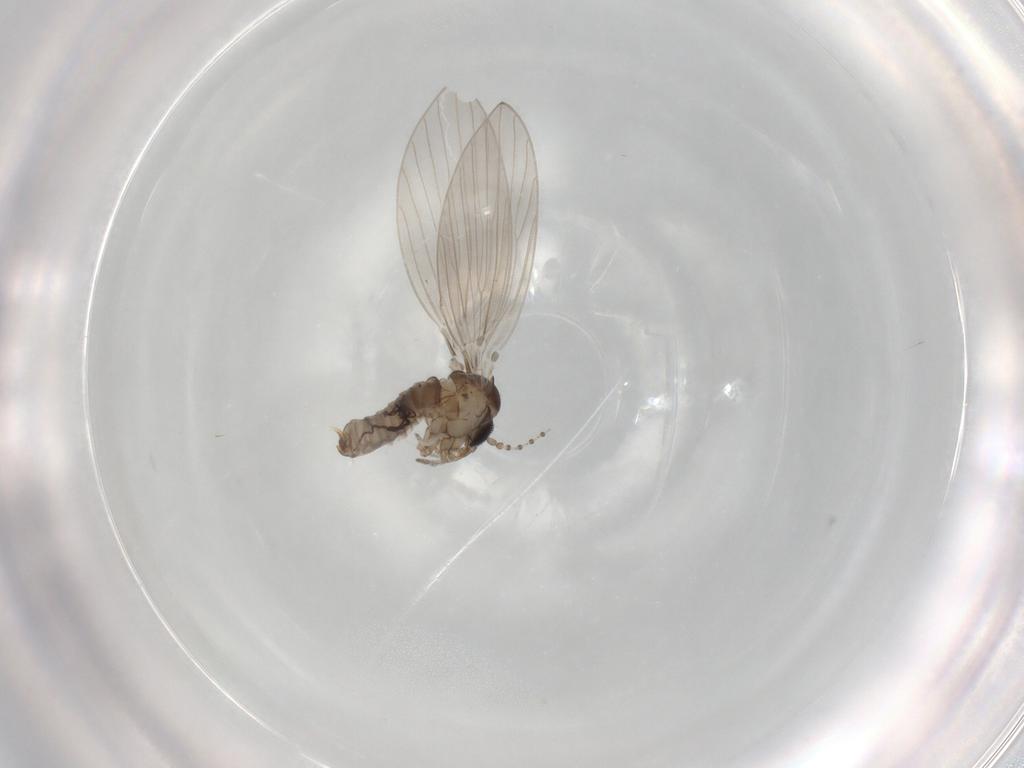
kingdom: Animalia
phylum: Arthropoda
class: Insecta
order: Diptera
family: Psychodidae
